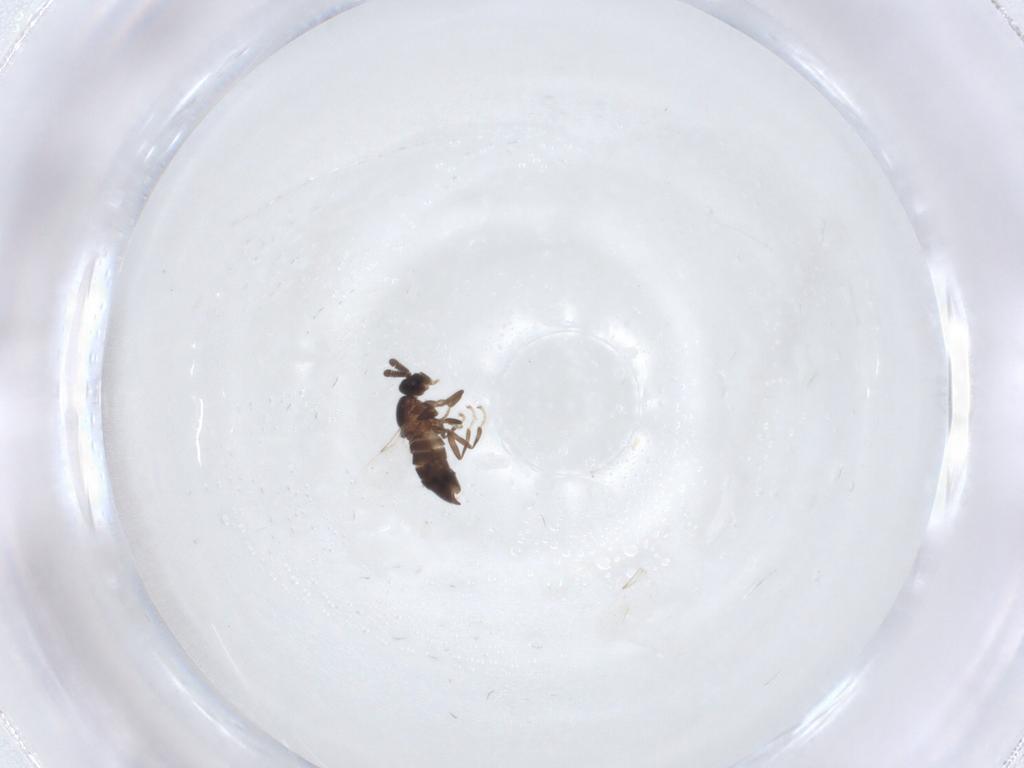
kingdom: Animalia
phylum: Arthropoda
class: Insecta
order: Diptera
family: Scatopsidae
